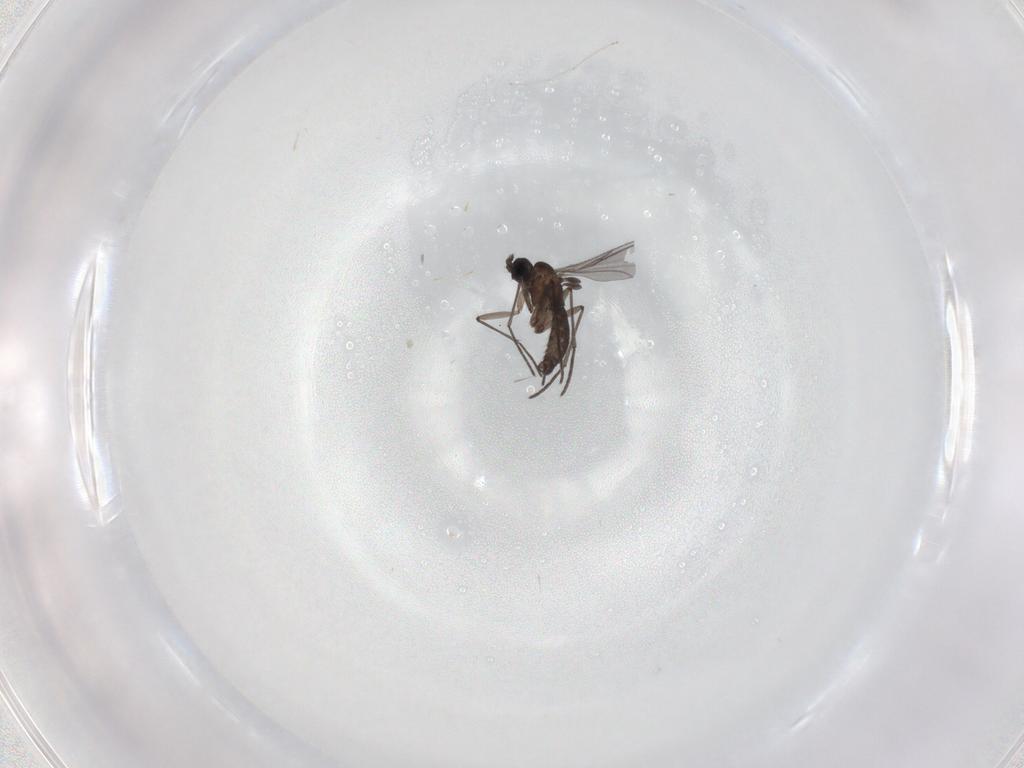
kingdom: Animalia
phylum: Arthropoda
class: Insecta
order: Diptera
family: Cecidomyiidae
